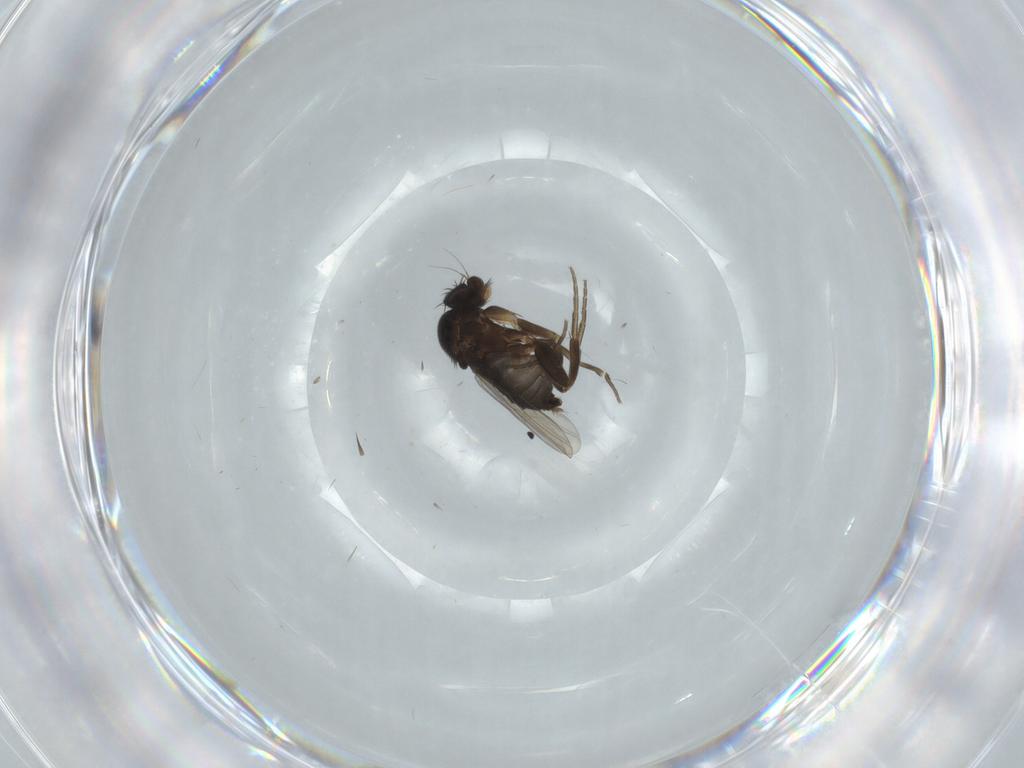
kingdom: Animalia
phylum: Arthropoda
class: Insecta
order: Diptera
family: Phoridae
